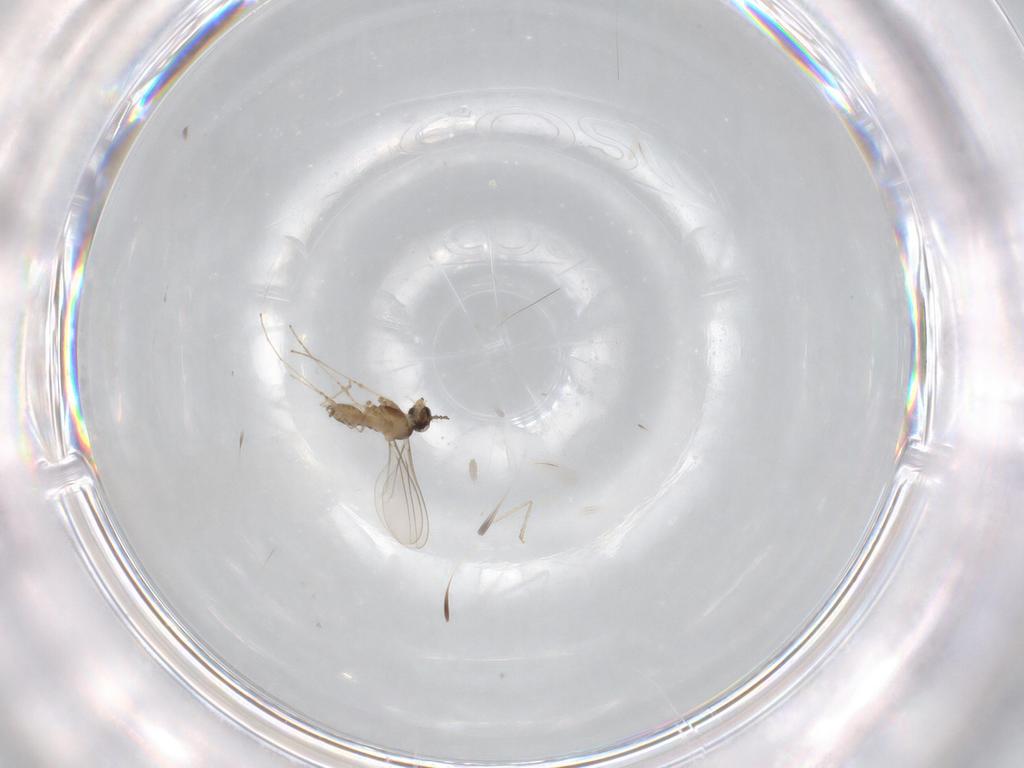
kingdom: Animalia
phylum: Arthropoda
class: Insecta
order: Diptera
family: Cecidomyiidae
